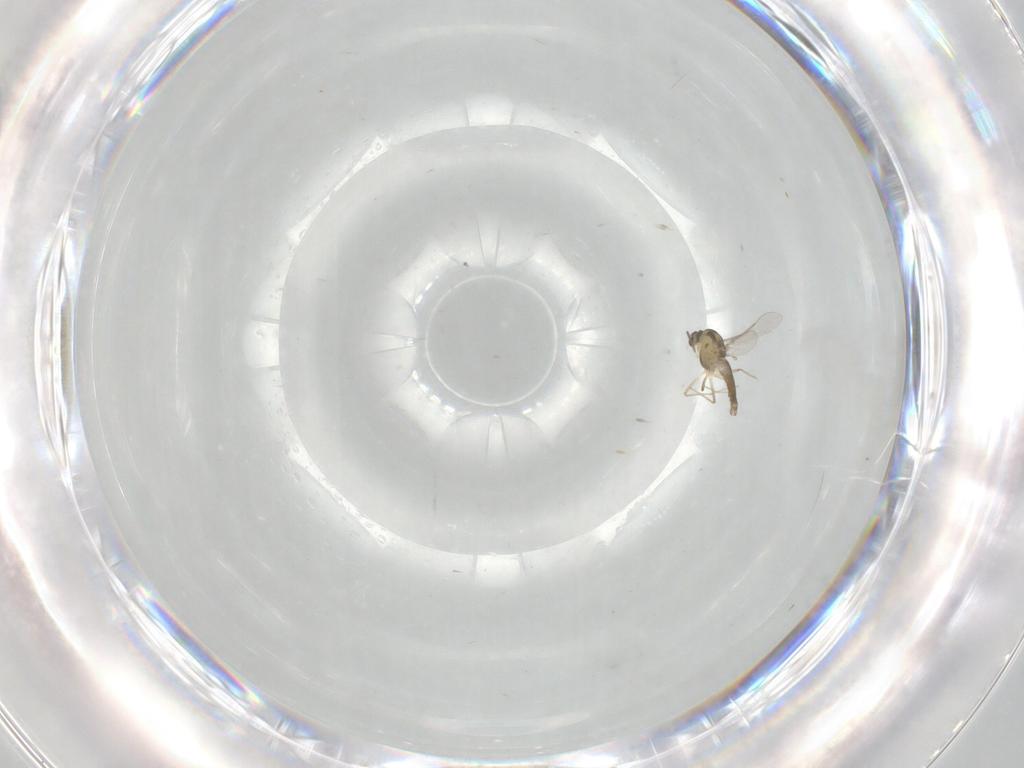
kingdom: Animalia
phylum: Arthropoda
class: Insecta
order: Diptera
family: Chironomidae
